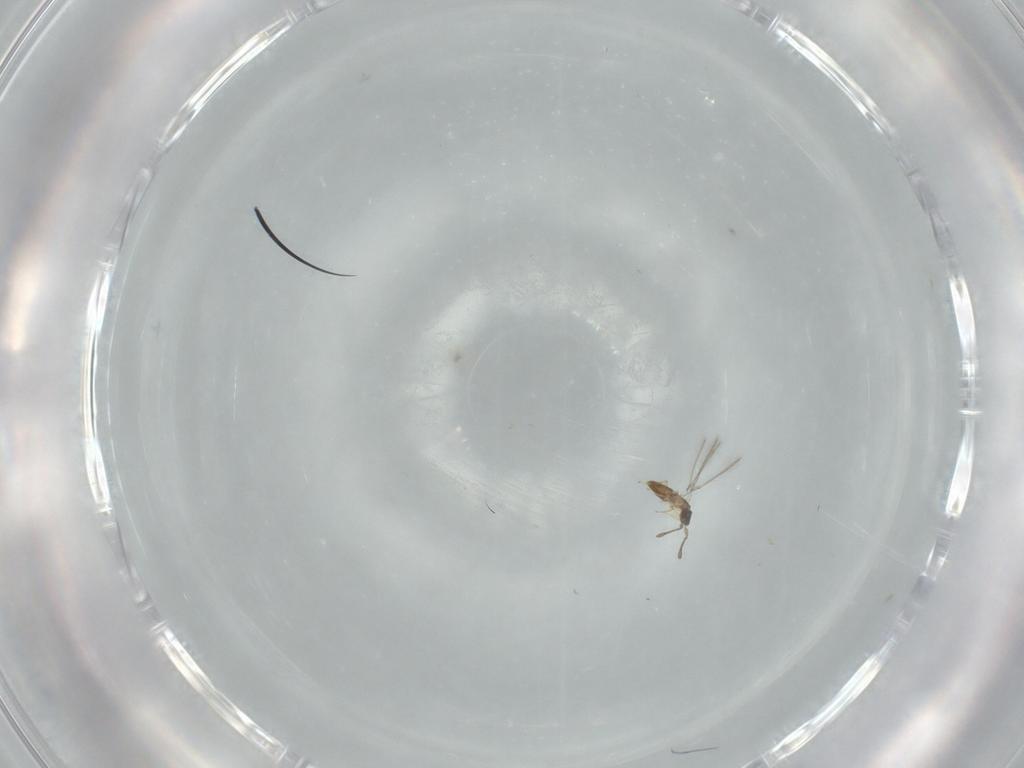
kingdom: Animalia
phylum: Arthropoda
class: Insecta
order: Hymenoptera
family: Mymaridae
